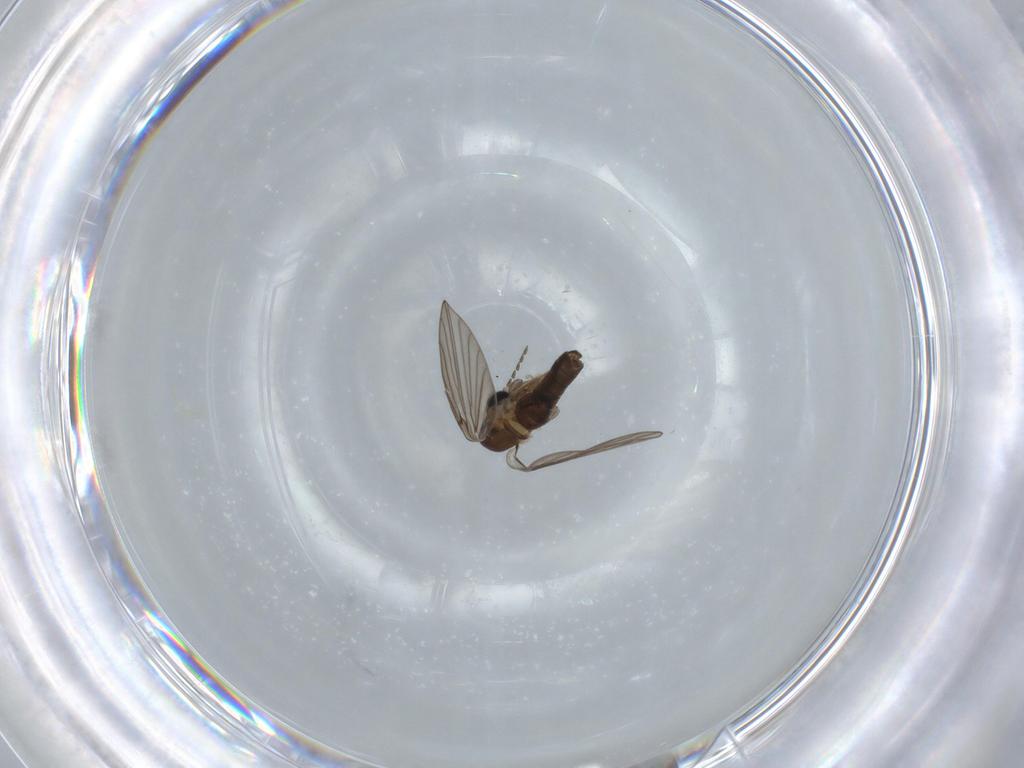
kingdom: Animalia
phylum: Arthropoda
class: Insecta
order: Diptera
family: Psychodidae
